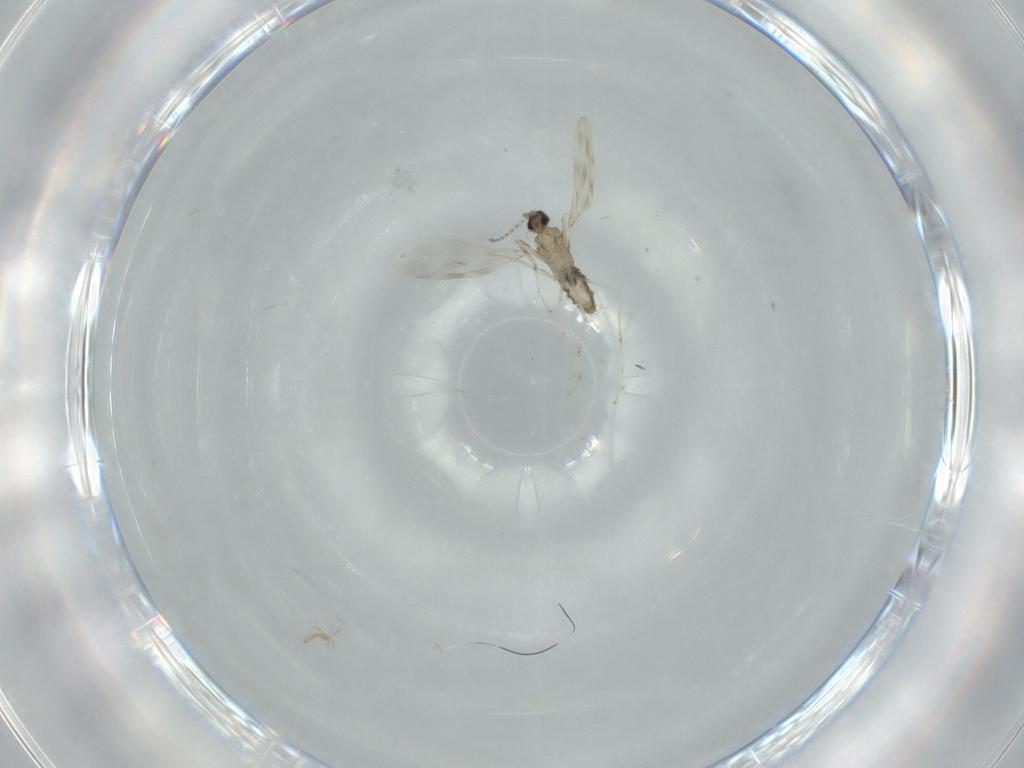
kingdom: Animalia
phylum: Arthropoda
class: Insecta
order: Diptera
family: Cecidomyiidae
